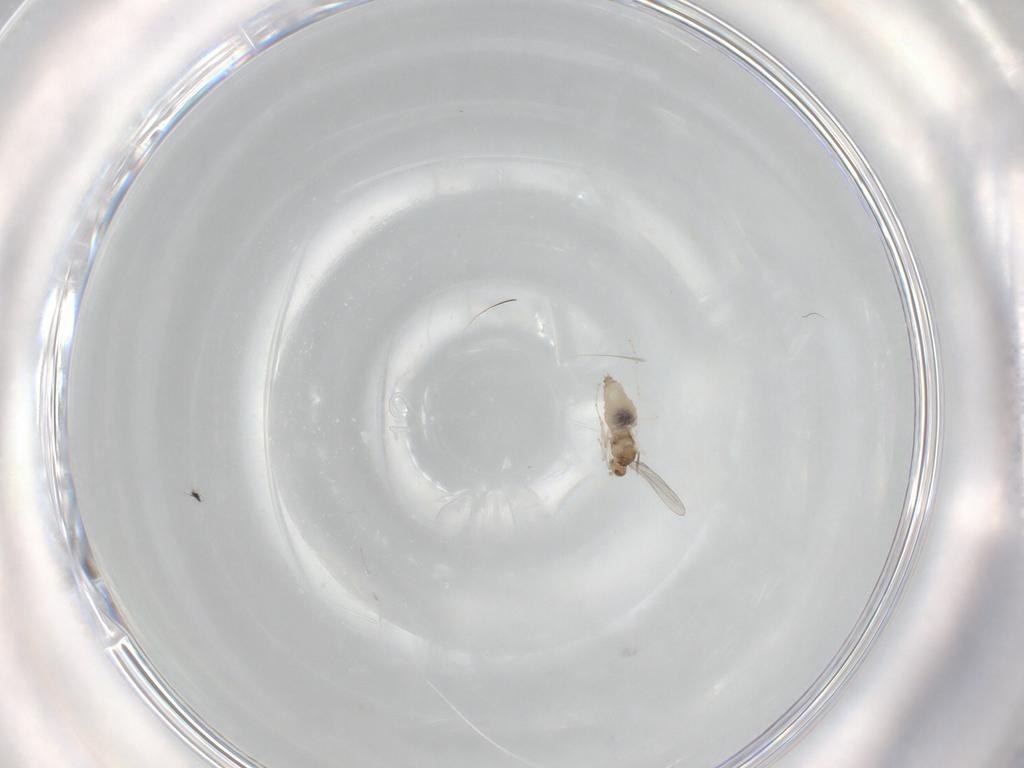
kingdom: Animalia
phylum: Arthropoda
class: Insecta
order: Diptera
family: Cecidomyiidae
